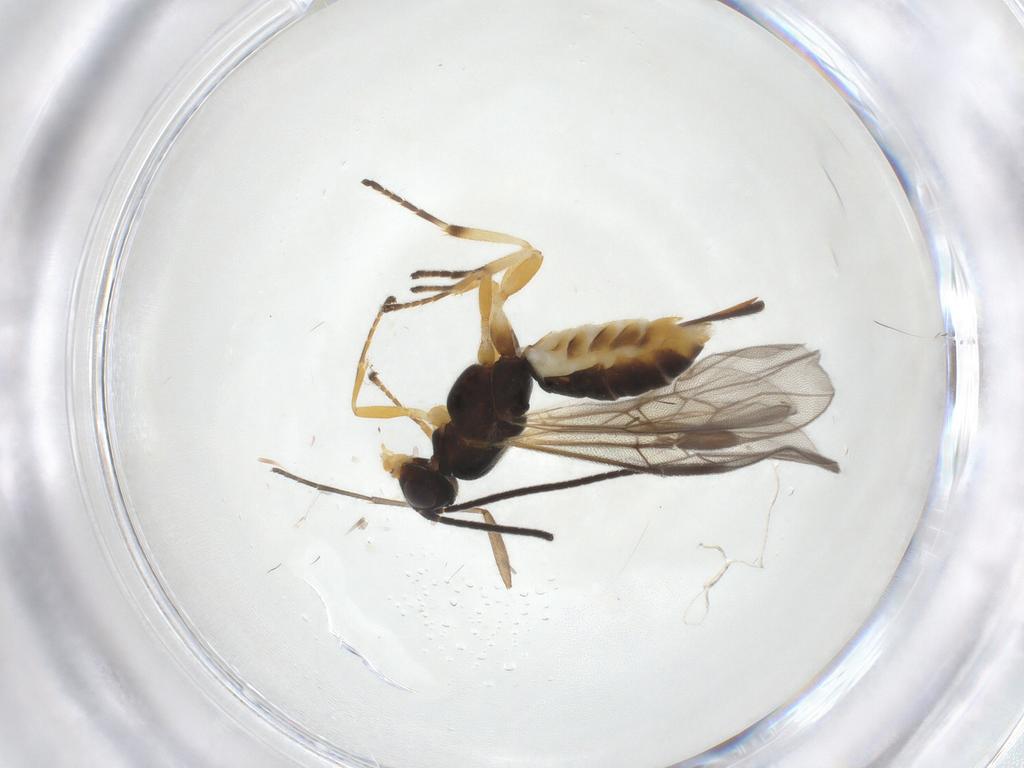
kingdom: Animalia
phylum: Arthropoda
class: Insecta
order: Hymenoptera
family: Braconidae
